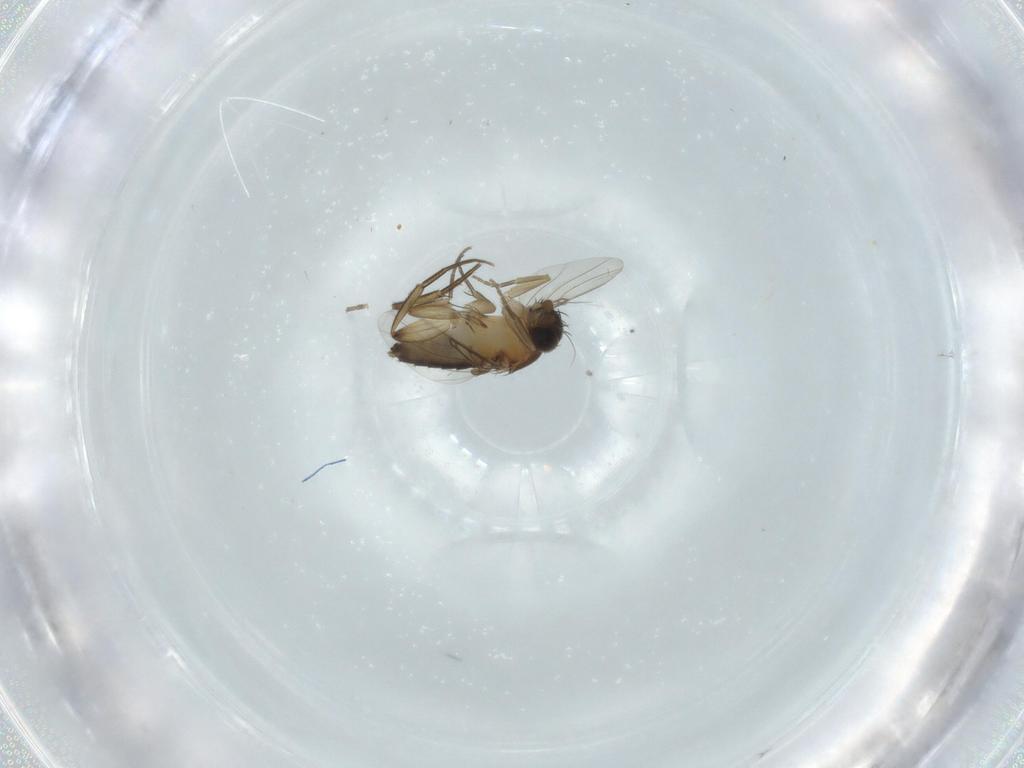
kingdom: Animalia
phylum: Arthropoda
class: Insecta
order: Diptera
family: Phoridae
